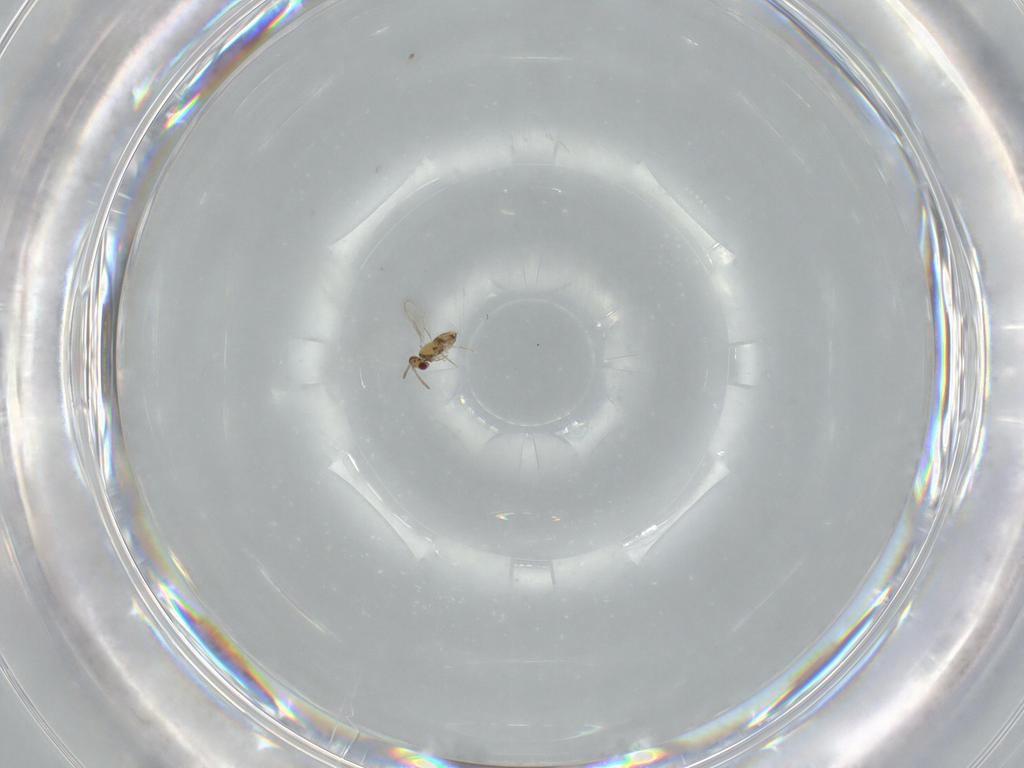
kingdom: Animalia
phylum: Arthropoda
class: Insecta
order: Hymenoptera
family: Aphelinidae
